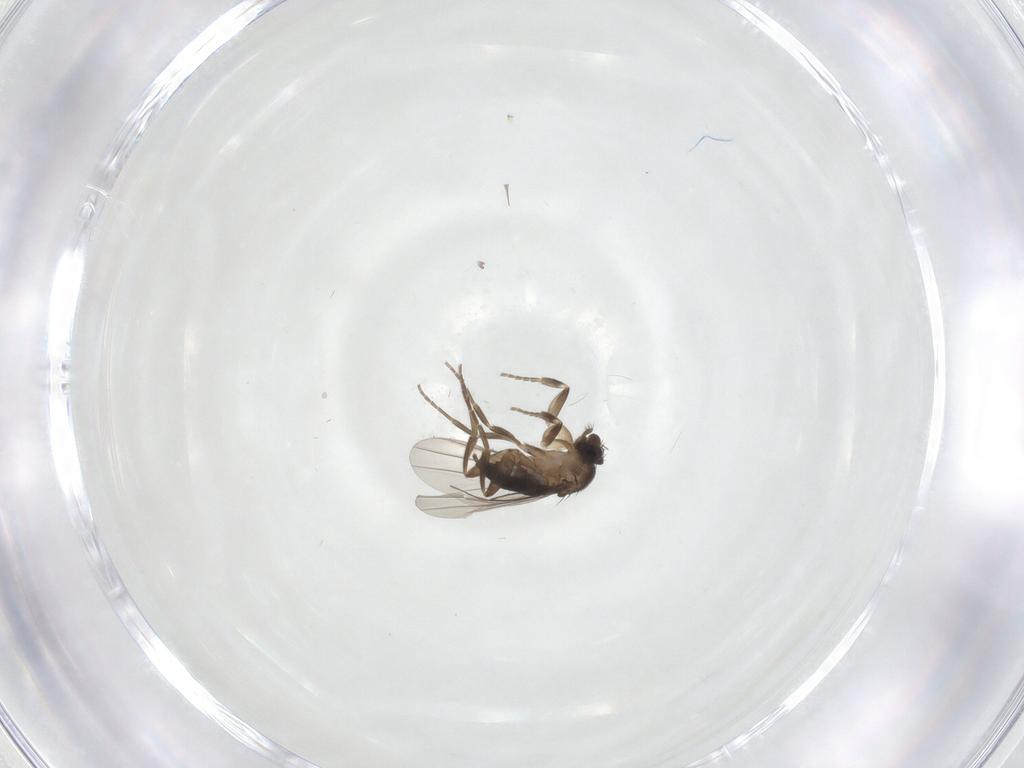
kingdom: Animalia
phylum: Arthropoda
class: Insecta
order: Diptera
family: Phoridae
